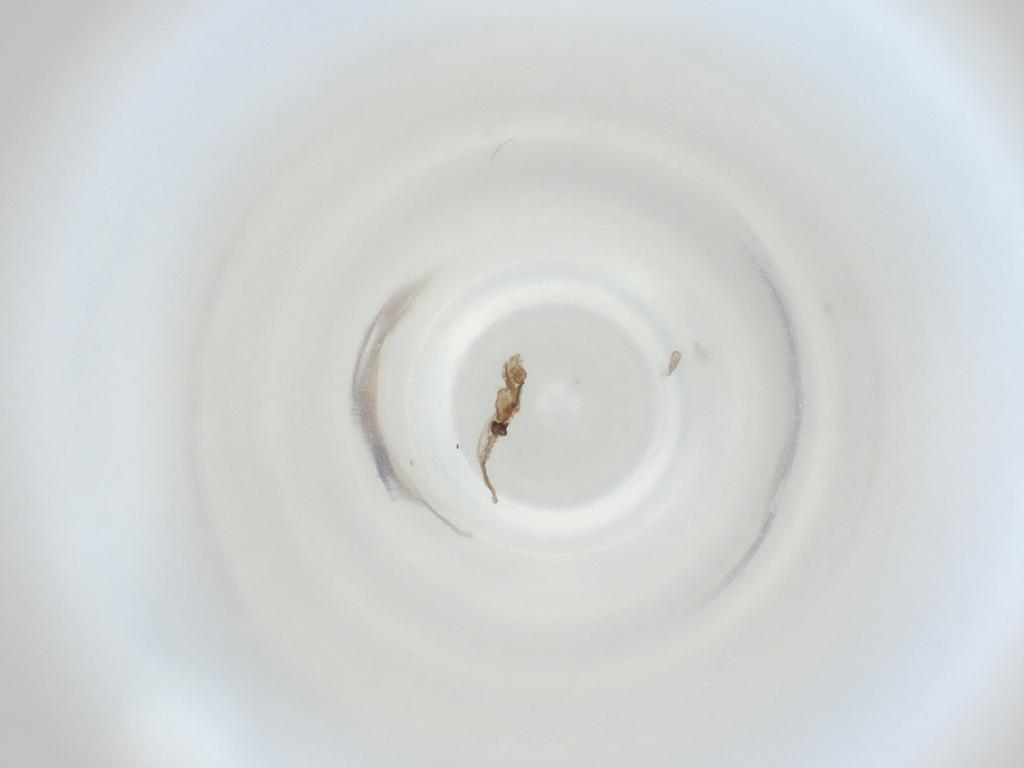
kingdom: Animalia
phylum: Arthropoda
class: Insecta
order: Diptera
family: Cecidomyiidae
